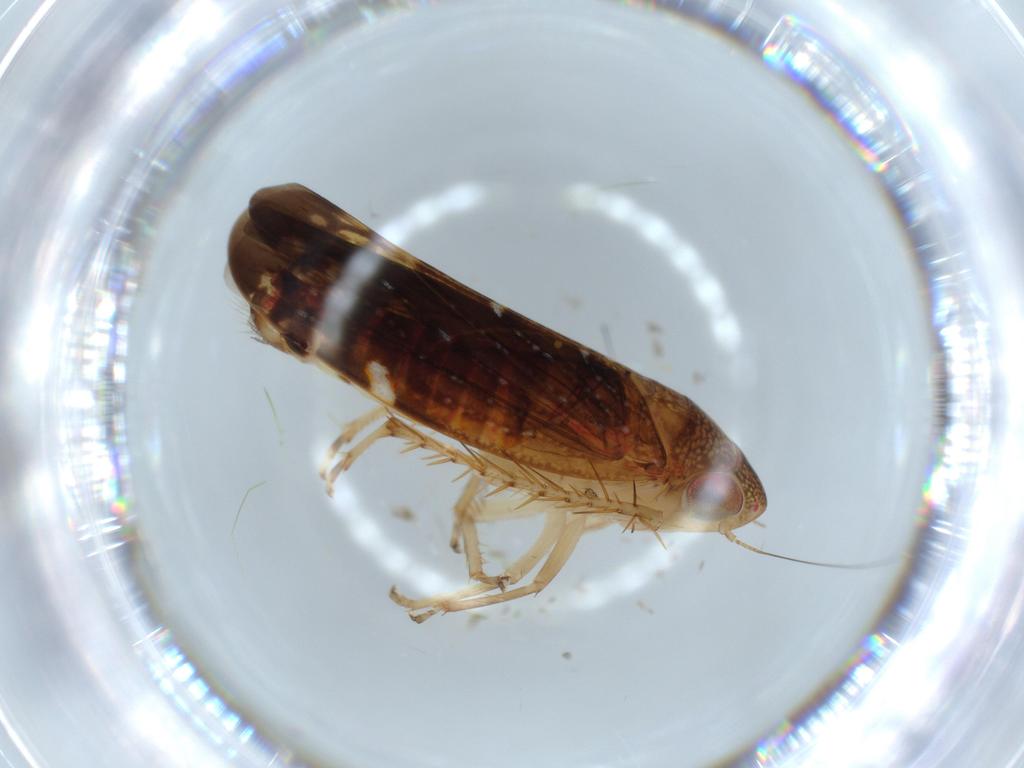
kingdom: Animalia
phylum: Arthropoda
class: Insecta
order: Hemiptera
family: Cicadellidae
